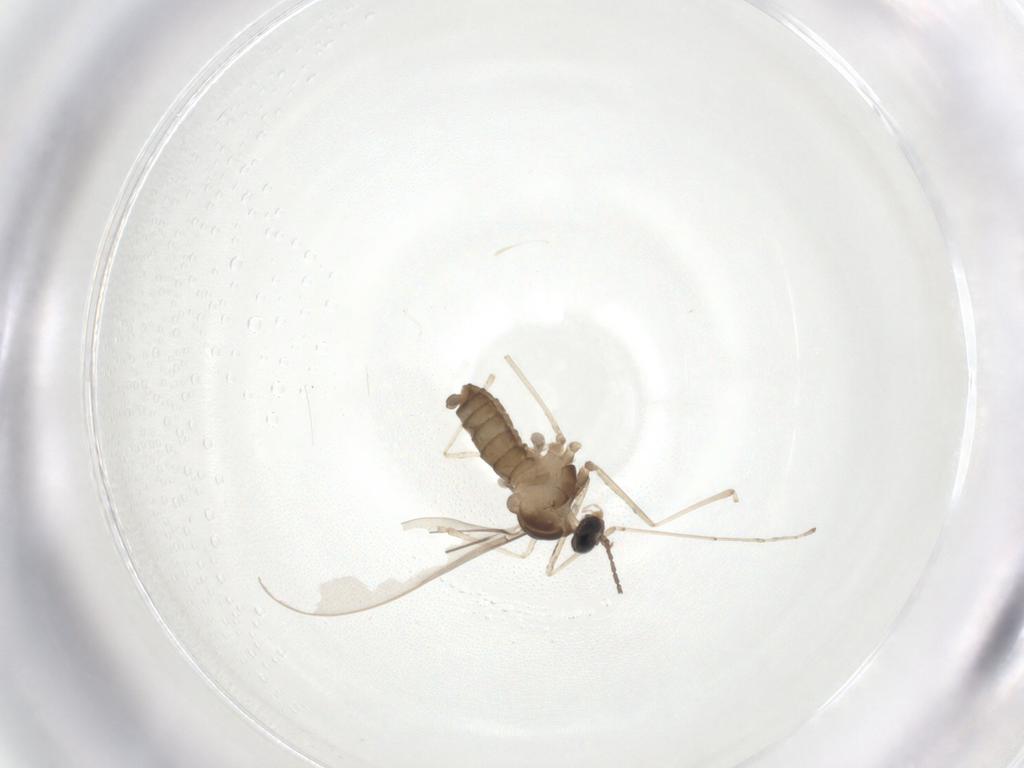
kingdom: Animalia
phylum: Arthropoda
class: Insecta
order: Diptera
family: Cecidomyiidae
